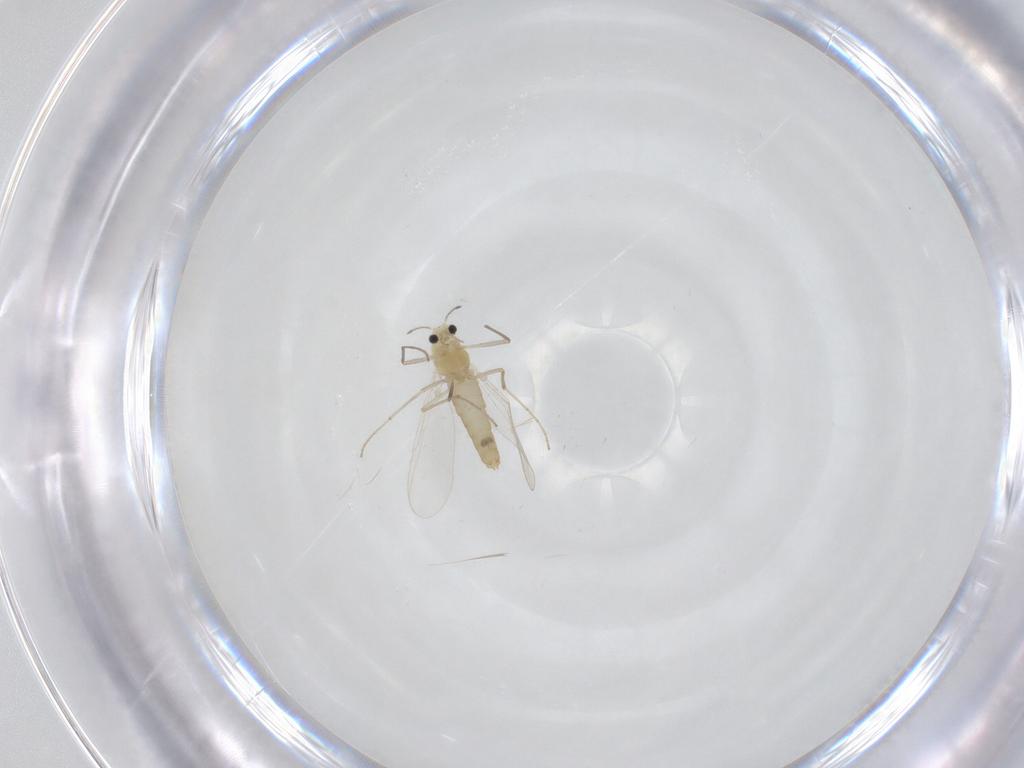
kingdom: Animalia
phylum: Arthropoda
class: Insecta
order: Diptera
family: Chironomidae
